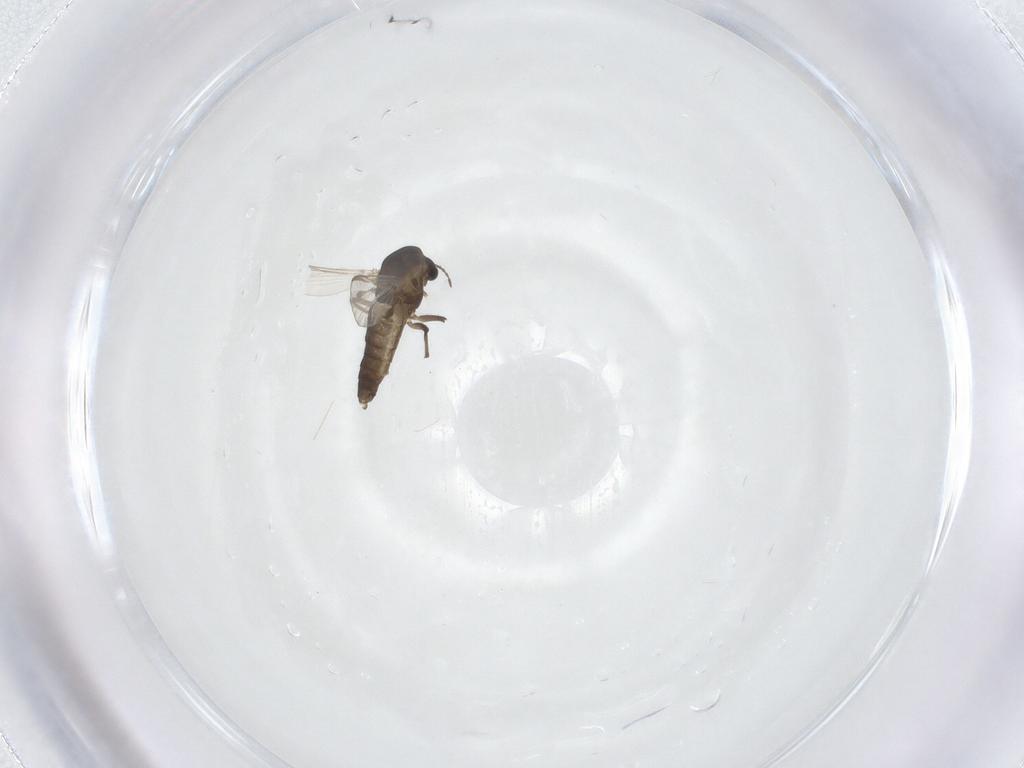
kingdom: Animalia
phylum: Arthropoda
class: Insecta
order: Diptera
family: Chironomidae
